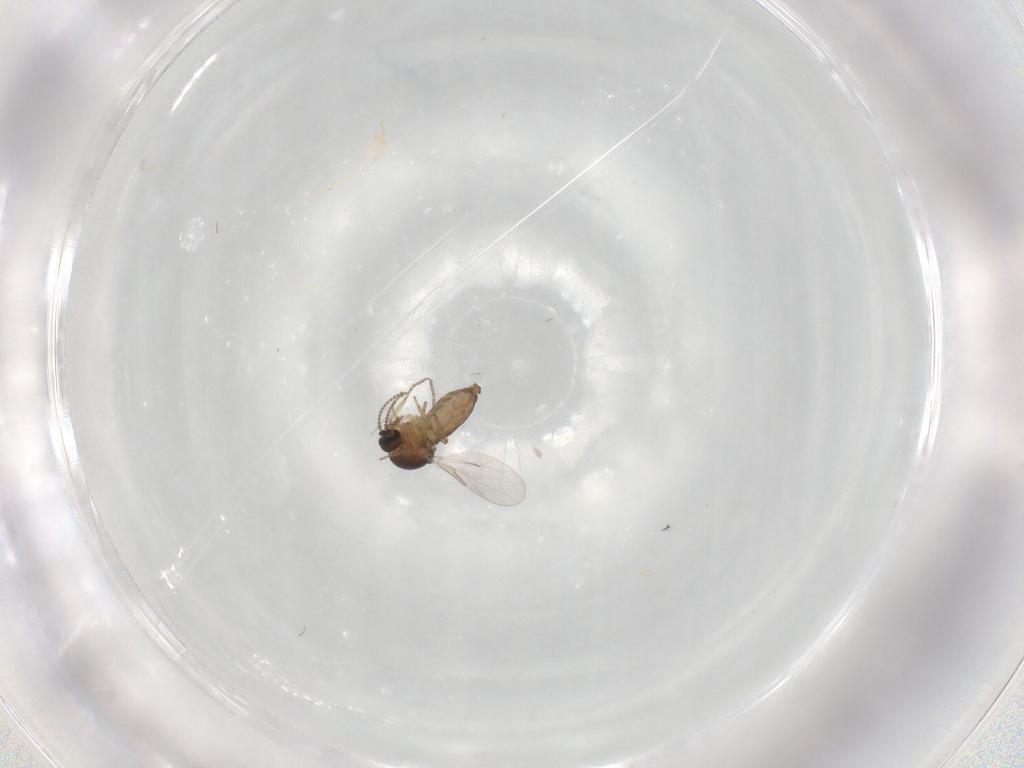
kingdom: Animalia
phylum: Arthropoda
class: Insecta
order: Diptera
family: Ceratopogonidae
